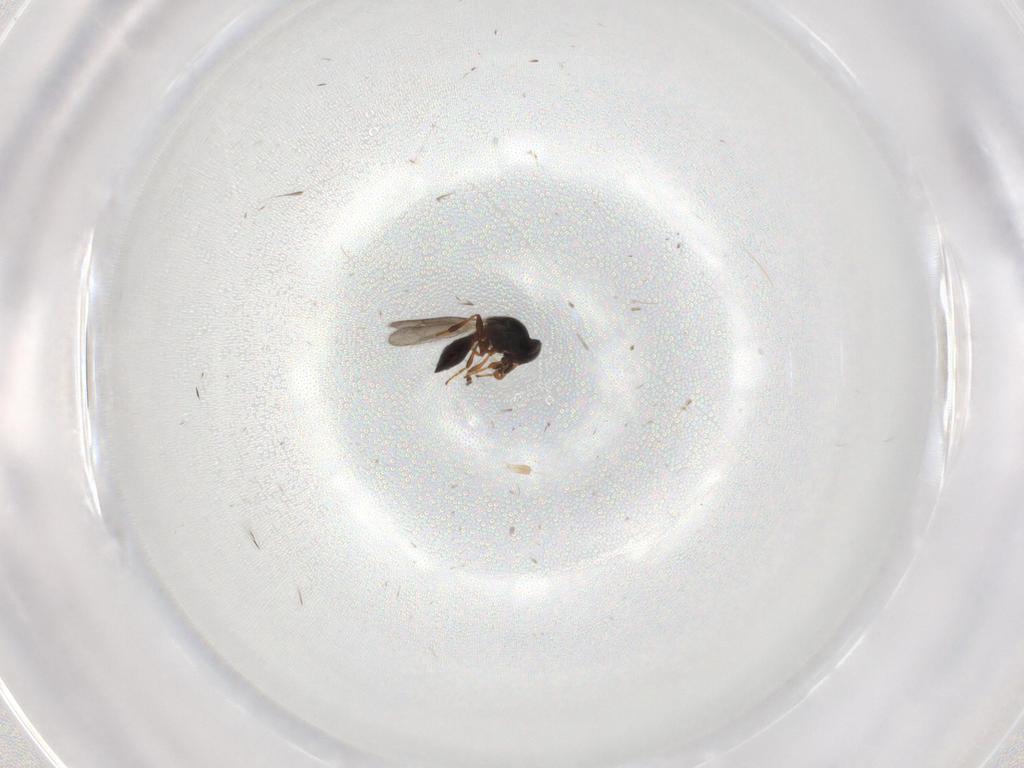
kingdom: Animalia
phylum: Arthropoda
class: Insecta
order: Hymenoptera
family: Platygastridae
